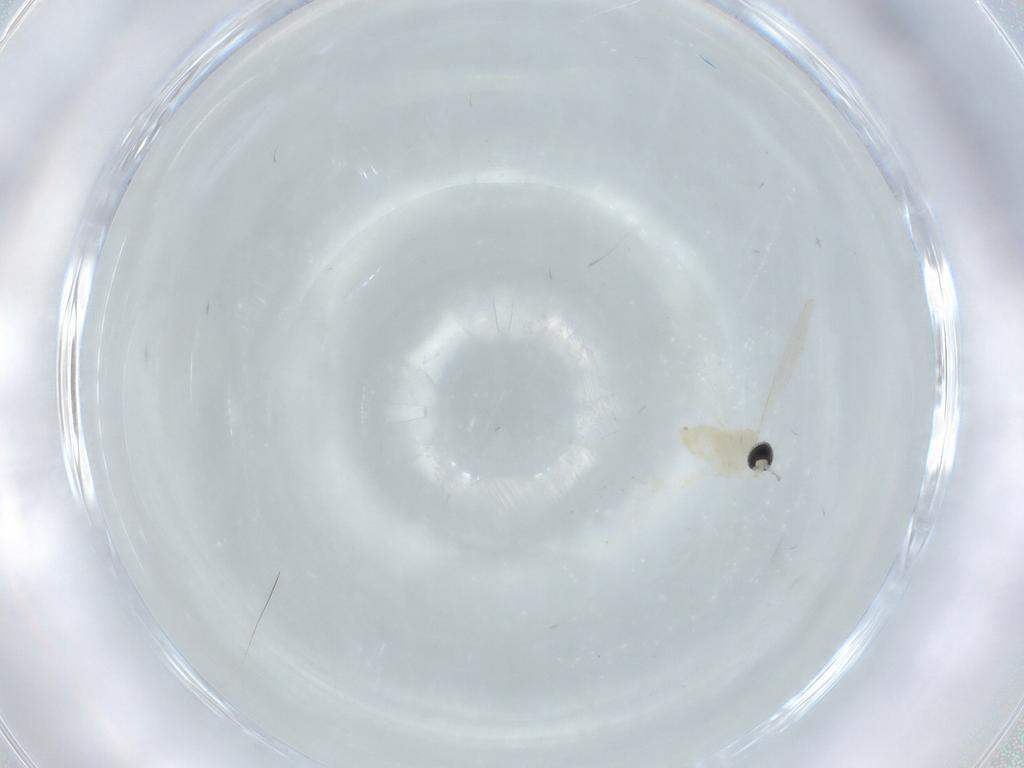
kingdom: Animalia
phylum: Arthropoda
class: Insecta
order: Diptera
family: Cecidomyiidae
